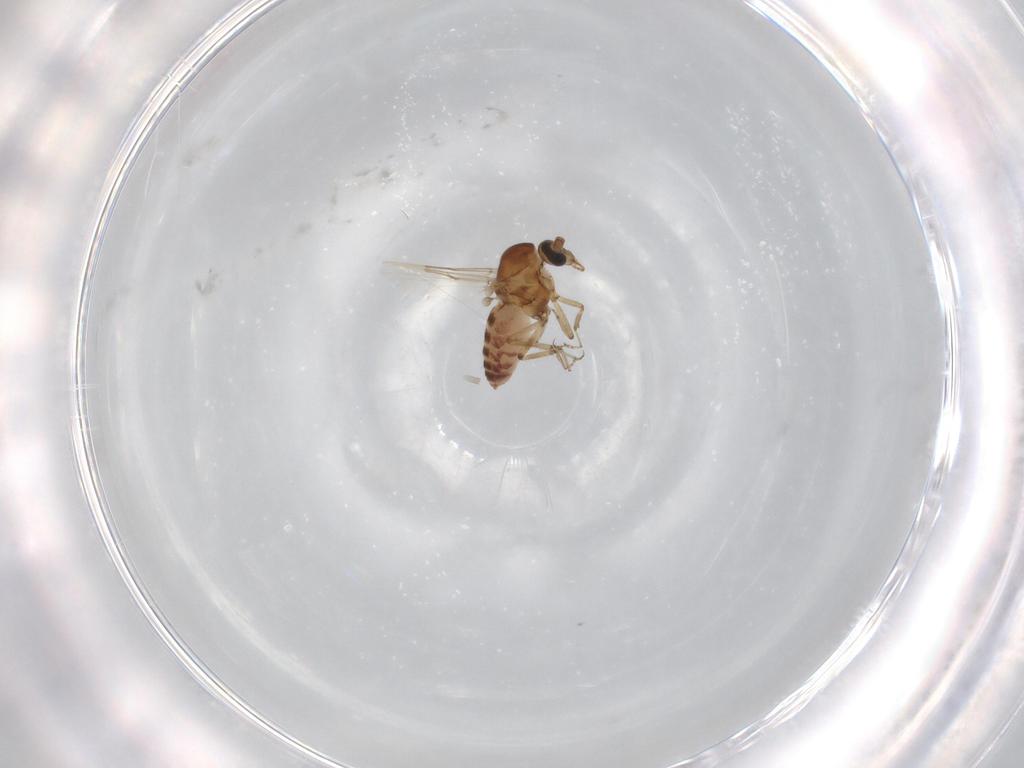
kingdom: Animalia
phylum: Arthropoda
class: Insecta
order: Diptera
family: Ceratopogonidae
